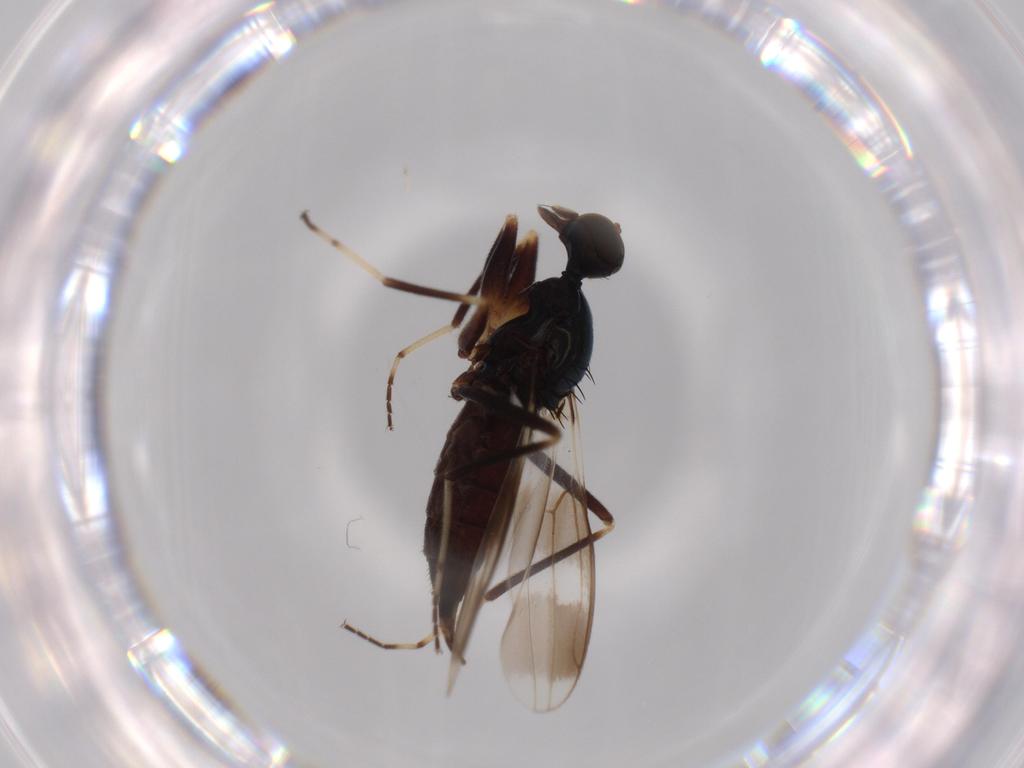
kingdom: Animalia
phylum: Arthropoda
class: Insecta
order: Diptera
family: Hybotidae
